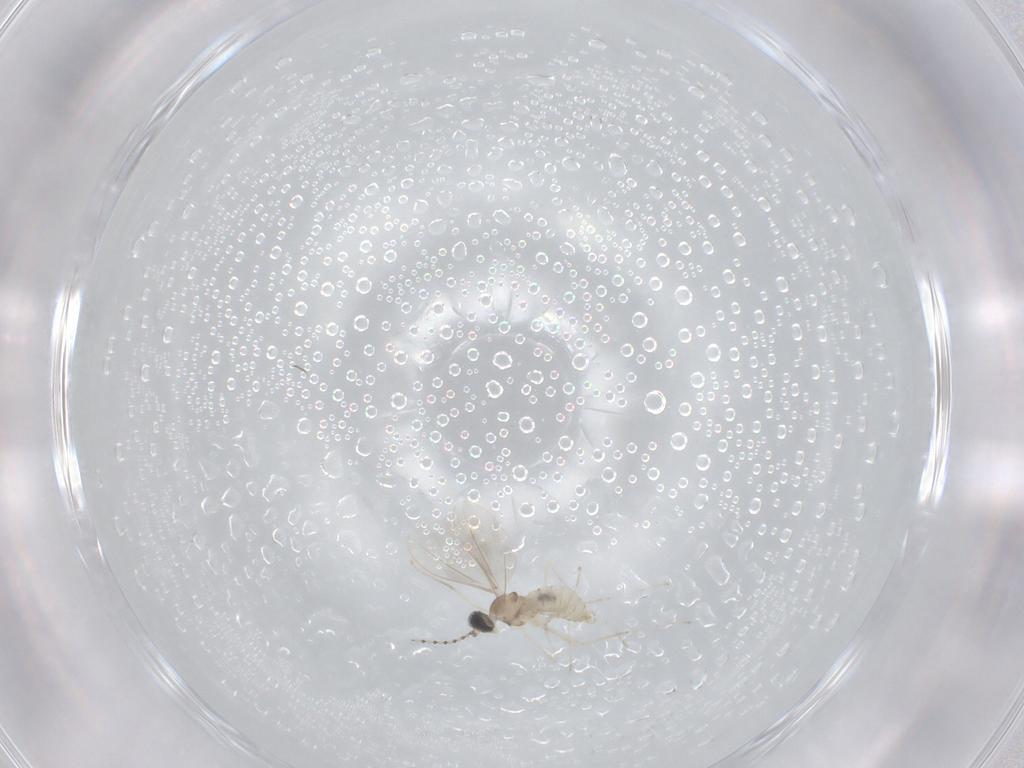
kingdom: Animalia
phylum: Arthropoda
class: Insecta
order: Diptera
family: Cecidomyiidae
